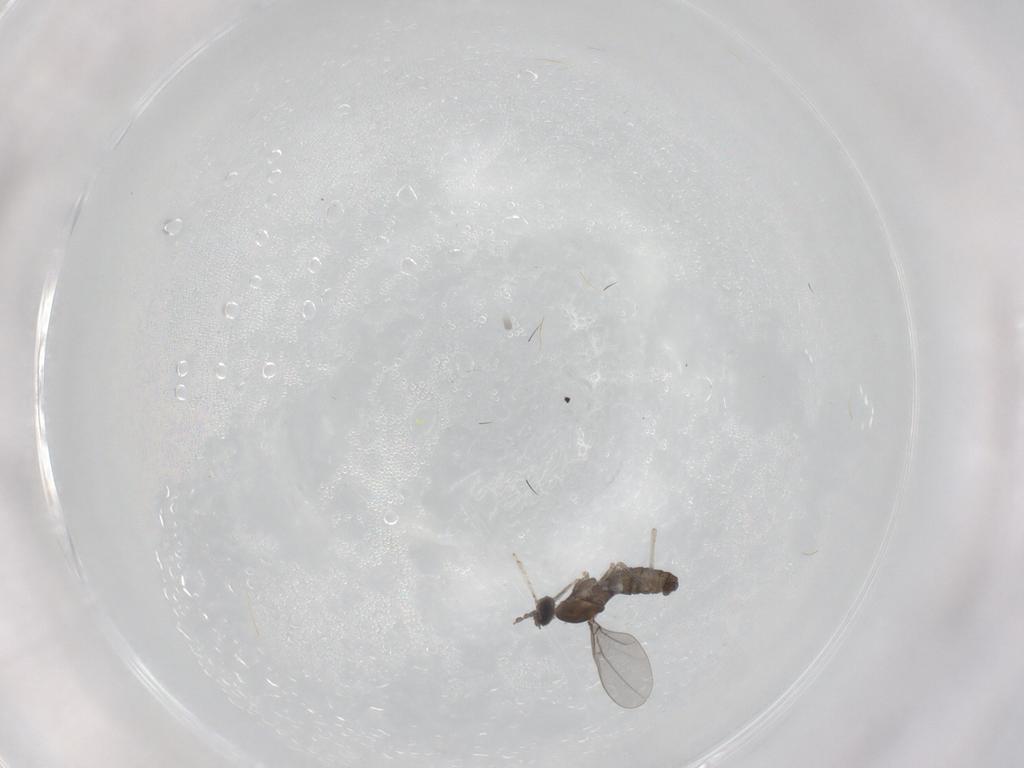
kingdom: Animalia
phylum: Arthropoda
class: Insecta
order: Diptera
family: Cecidomyiidae
